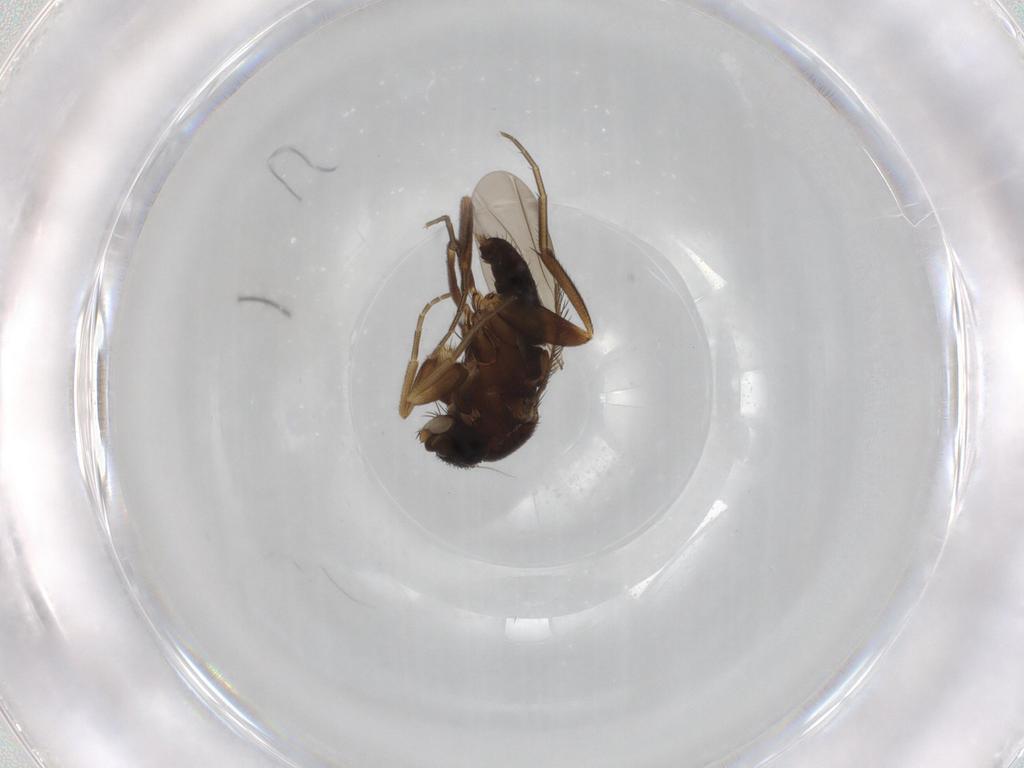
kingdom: Animalia
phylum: Arthropoda
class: Insecta
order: Diptera
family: Phoridae
